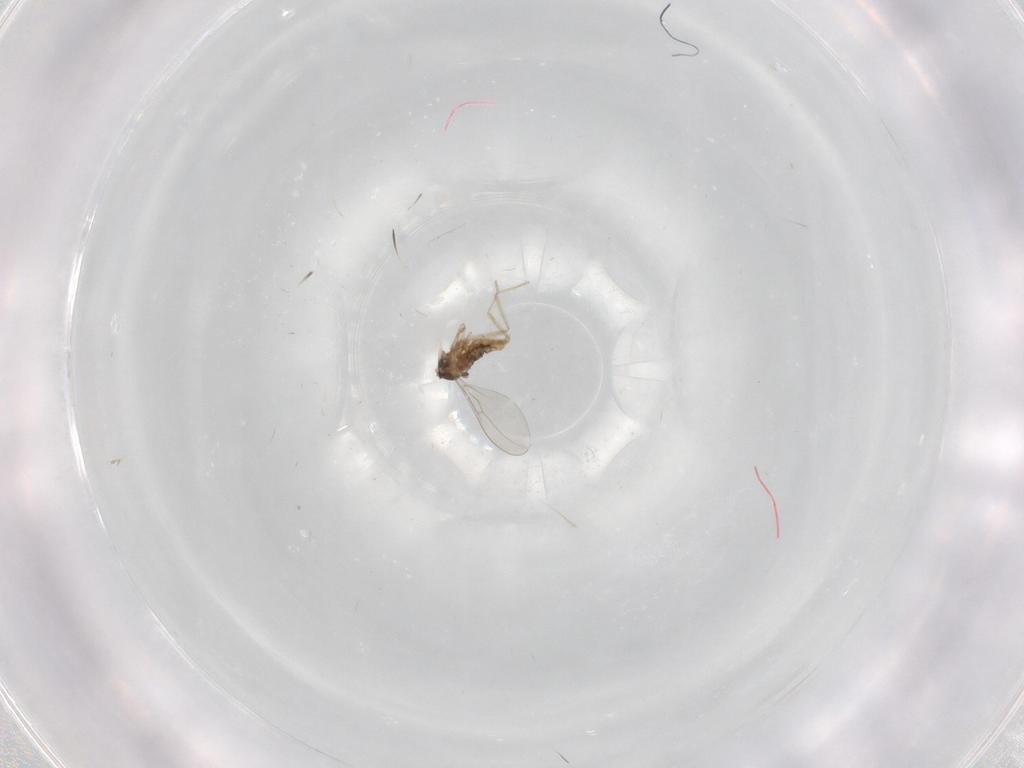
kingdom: Animalia
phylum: Arthropoda
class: Insecta
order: Diptera
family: Cecidomyiidae
